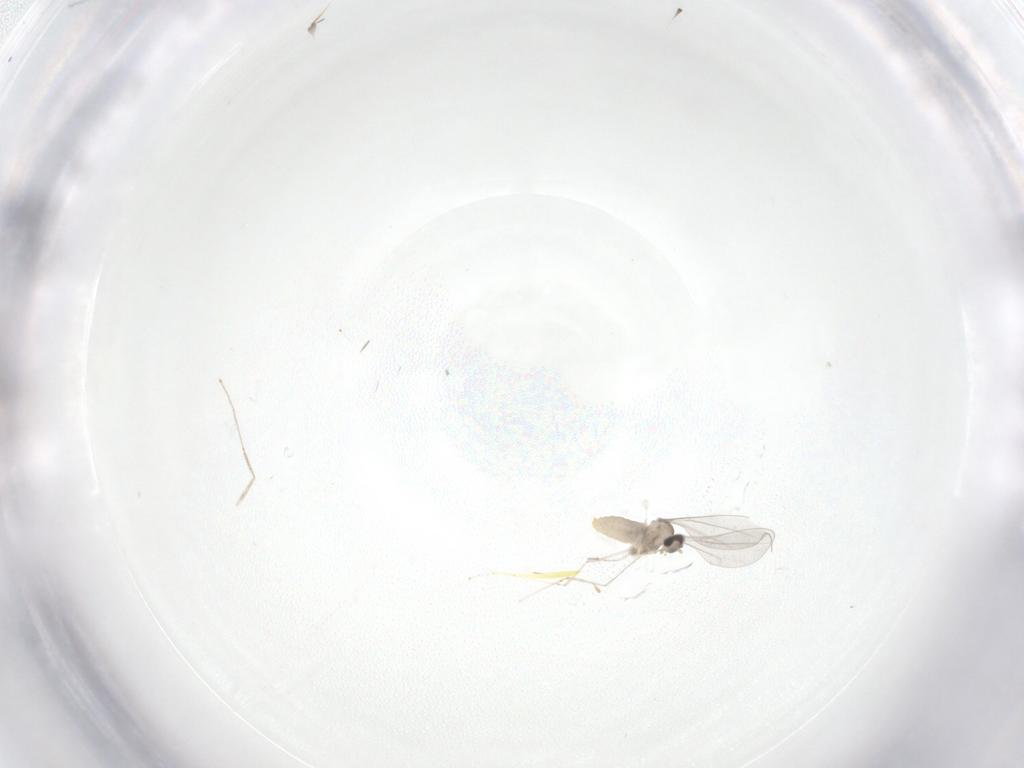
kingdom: Animalia
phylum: Arthropoda
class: Insecta
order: Diptera
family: Cecidomyiidae
